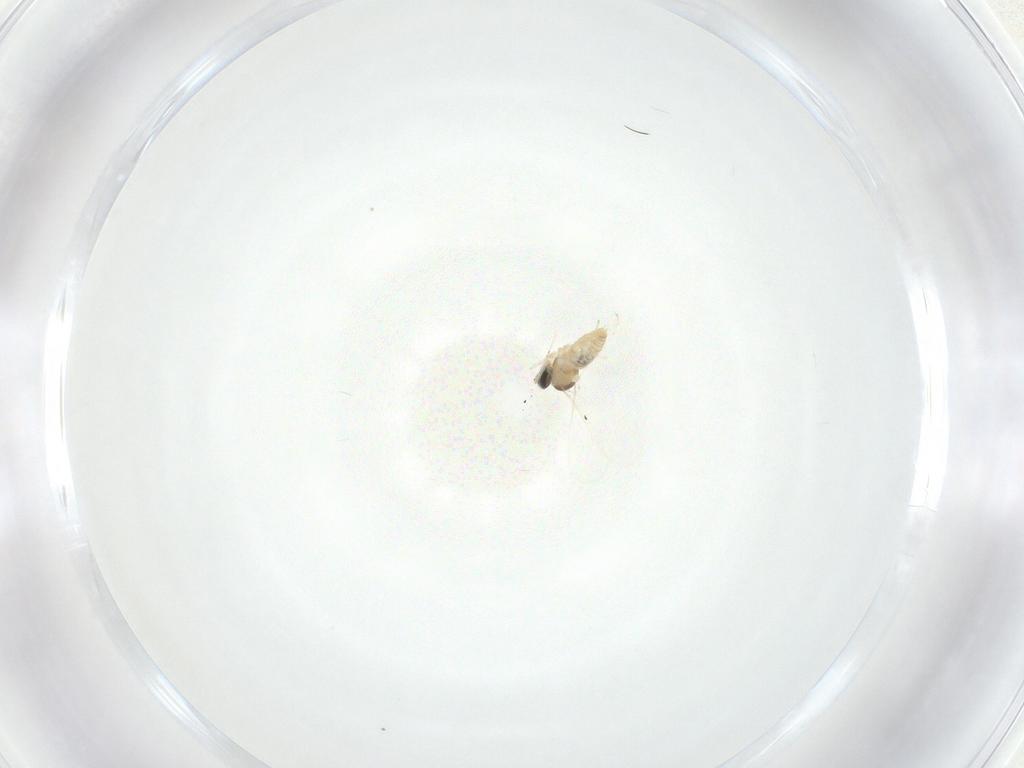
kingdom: Animalia
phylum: Arthropoda
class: Insecta
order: Diptera
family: Cecidomyiidae
